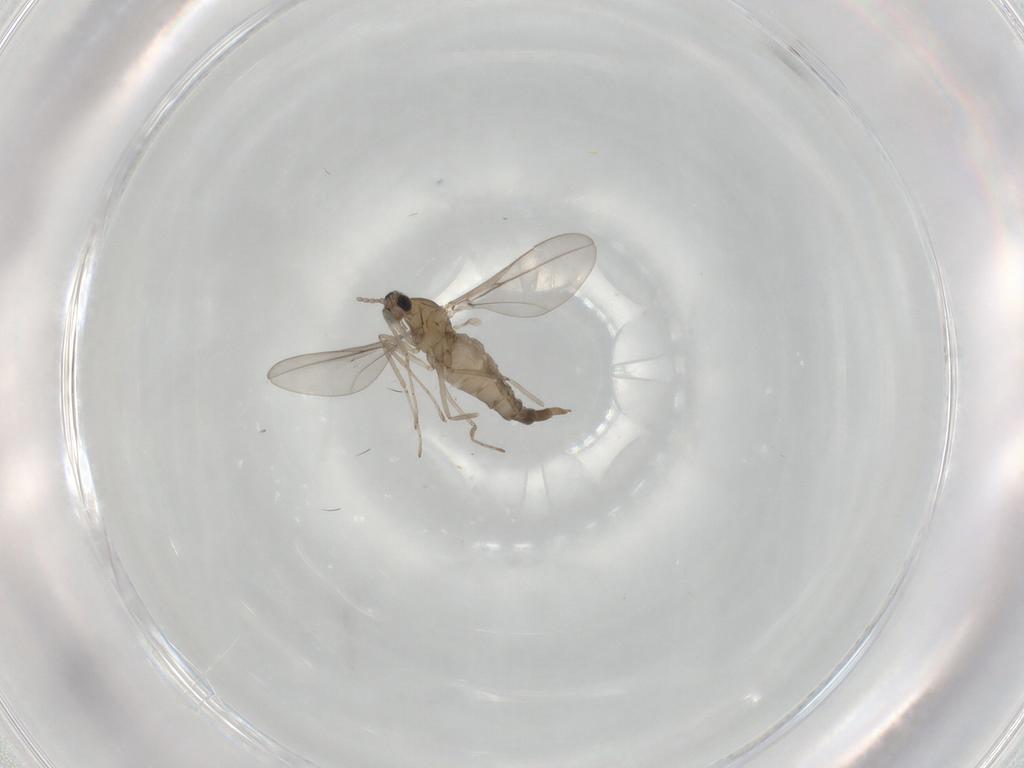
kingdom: Animalia
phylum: Arthropoda
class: Insecta
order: Diptera
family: Cecidomyiidae
